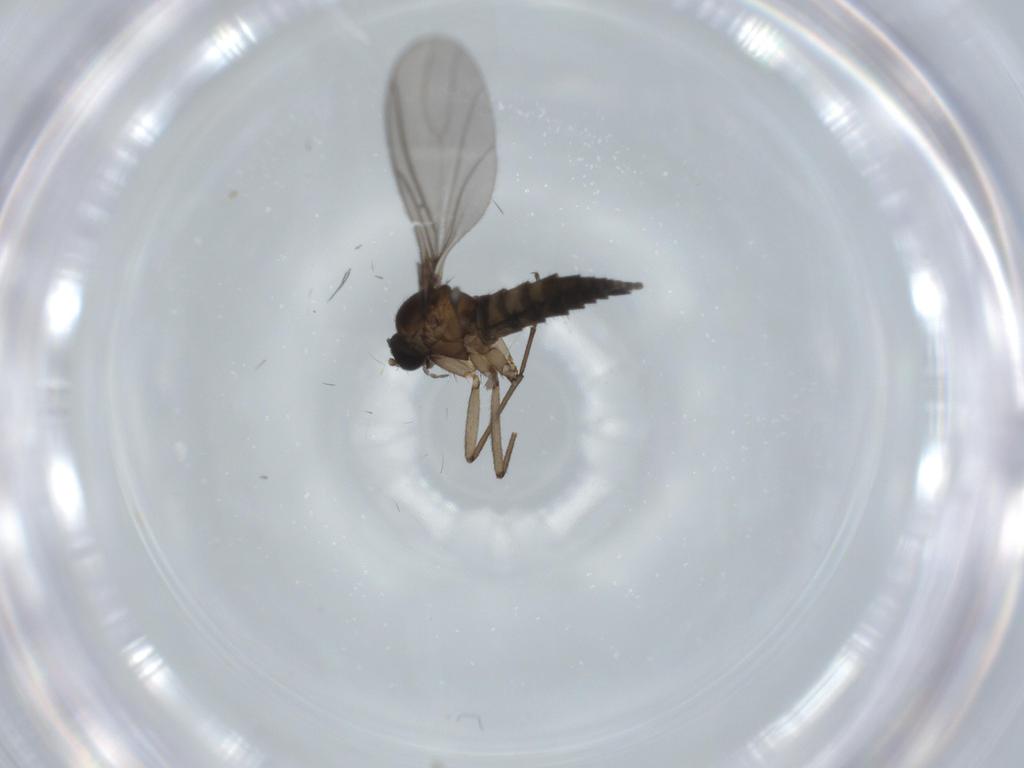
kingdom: Animalia
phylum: Arthropoda
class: Insecta
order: Diptera
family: Sciaridae
